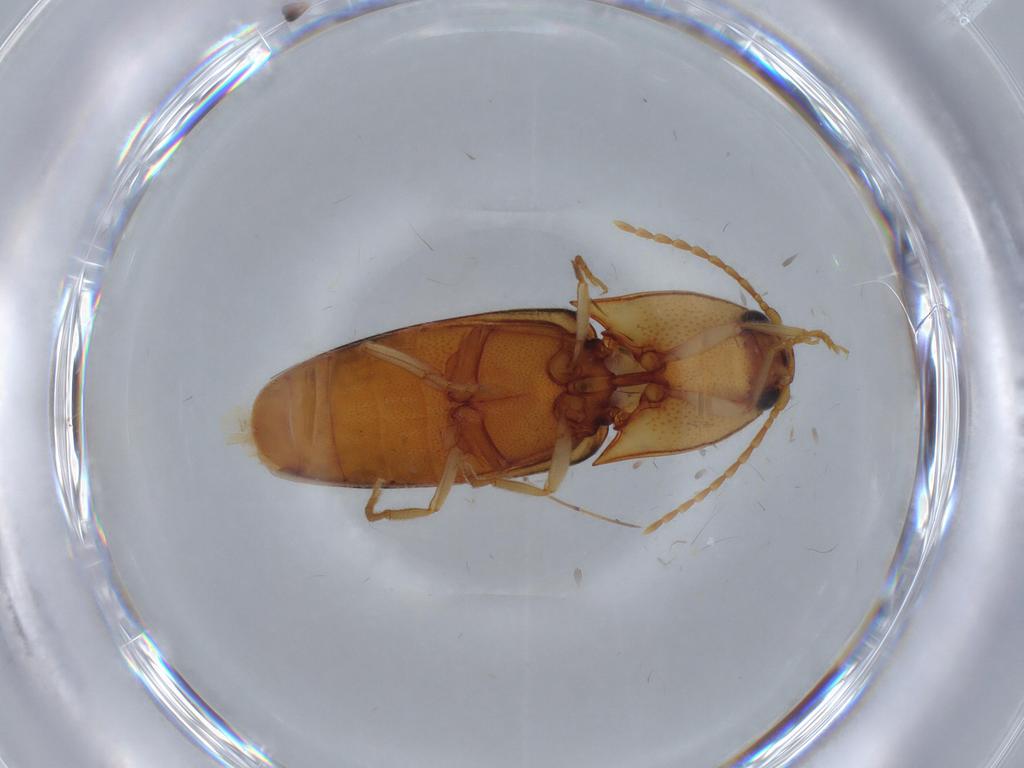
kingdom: Animalia
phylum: Arthropoda
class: Insecta
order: Coleoptera
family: Elateridae
